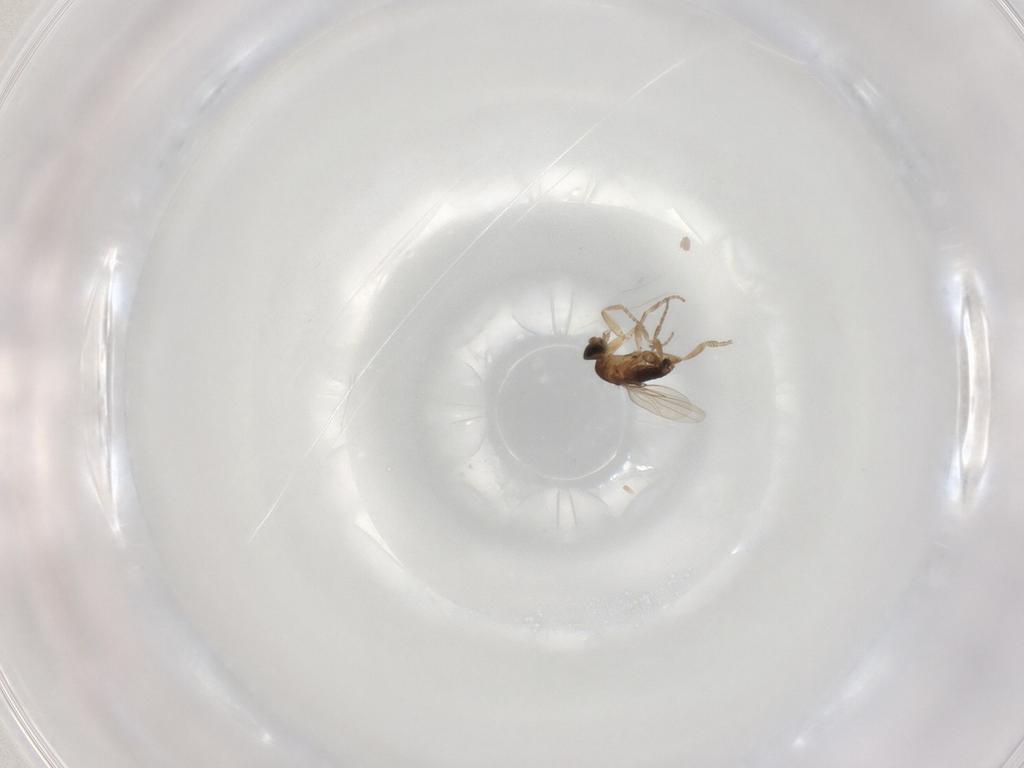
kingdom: Animalia
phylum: Arthropoda
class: Insecta
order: Diptera
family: Phoridae
